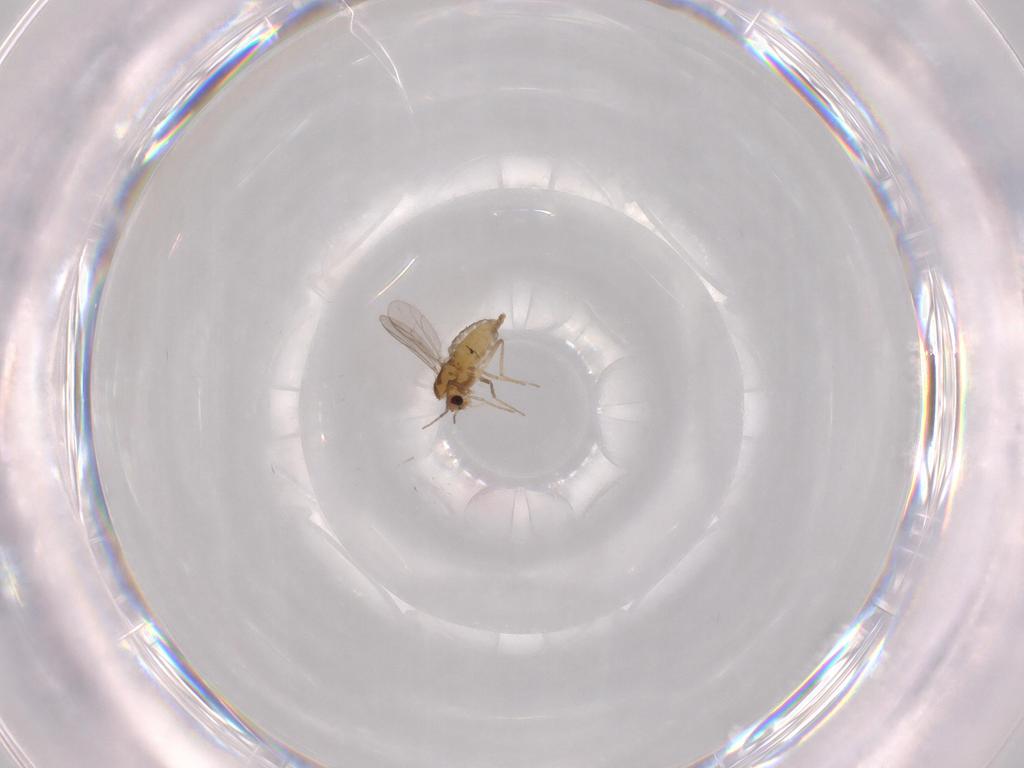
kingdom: Animalia
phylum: Arthropoda
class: Insecta
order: Diptera
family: Chironomidae
